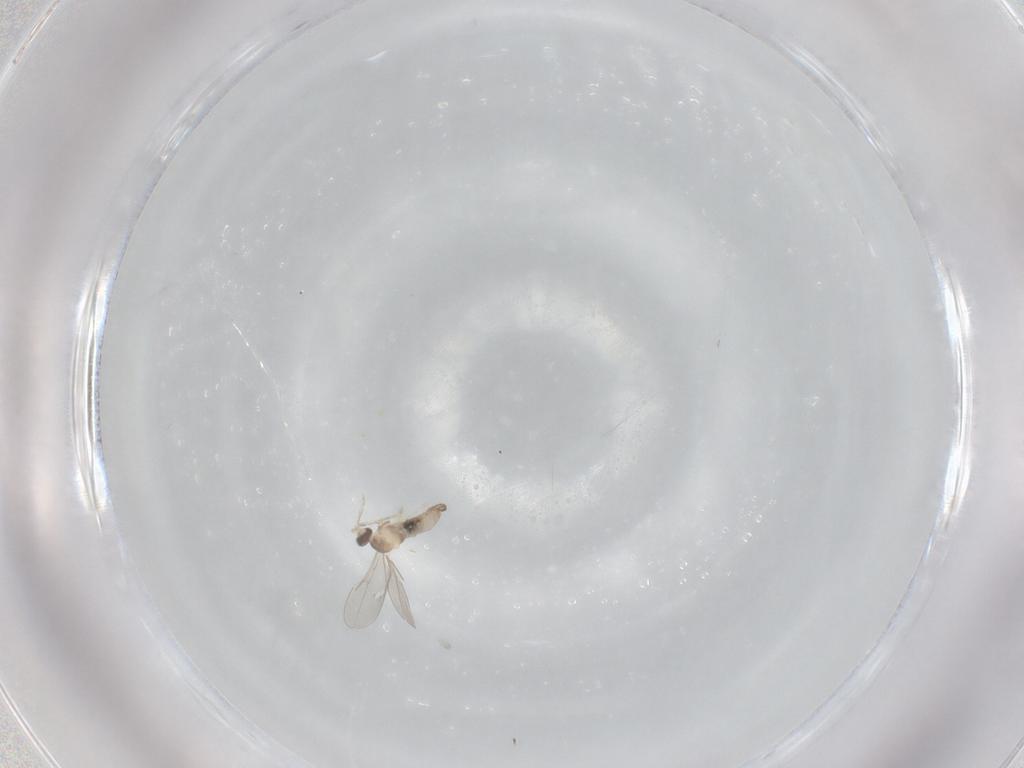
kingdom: Animalia
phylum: Arthropoda
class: Insecta
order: Diptera
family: Cecidomyiidae
